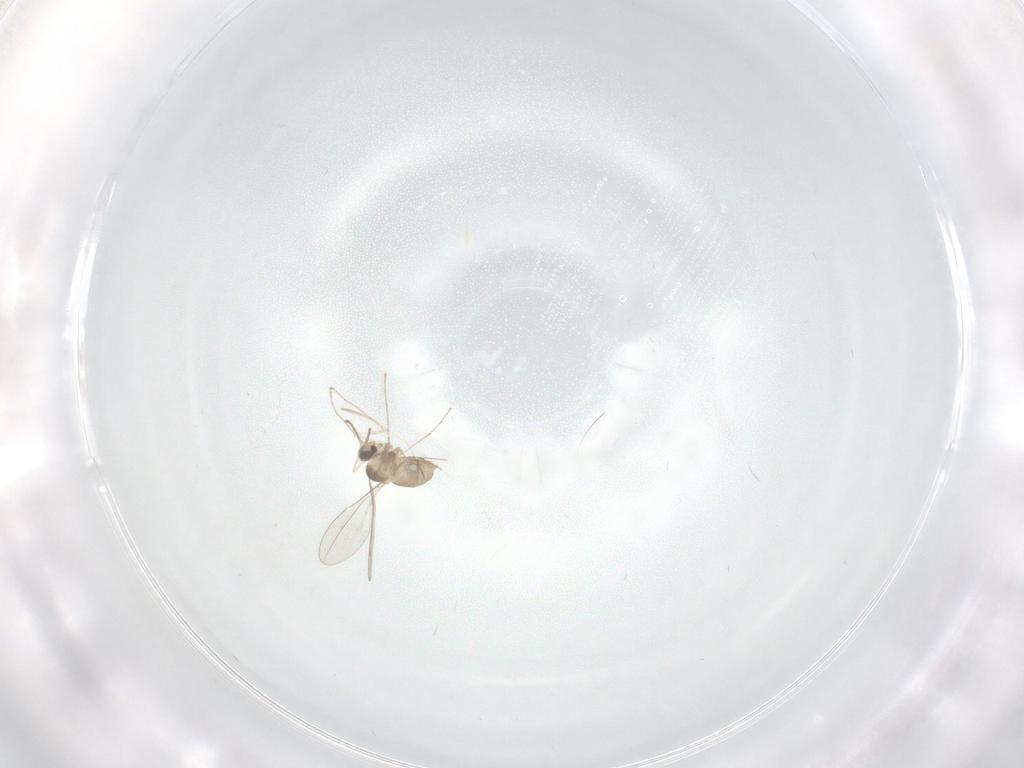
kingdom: Animalia
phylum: Arthropoda
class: Insecta
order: Diptera
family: Cecidomyiidae
